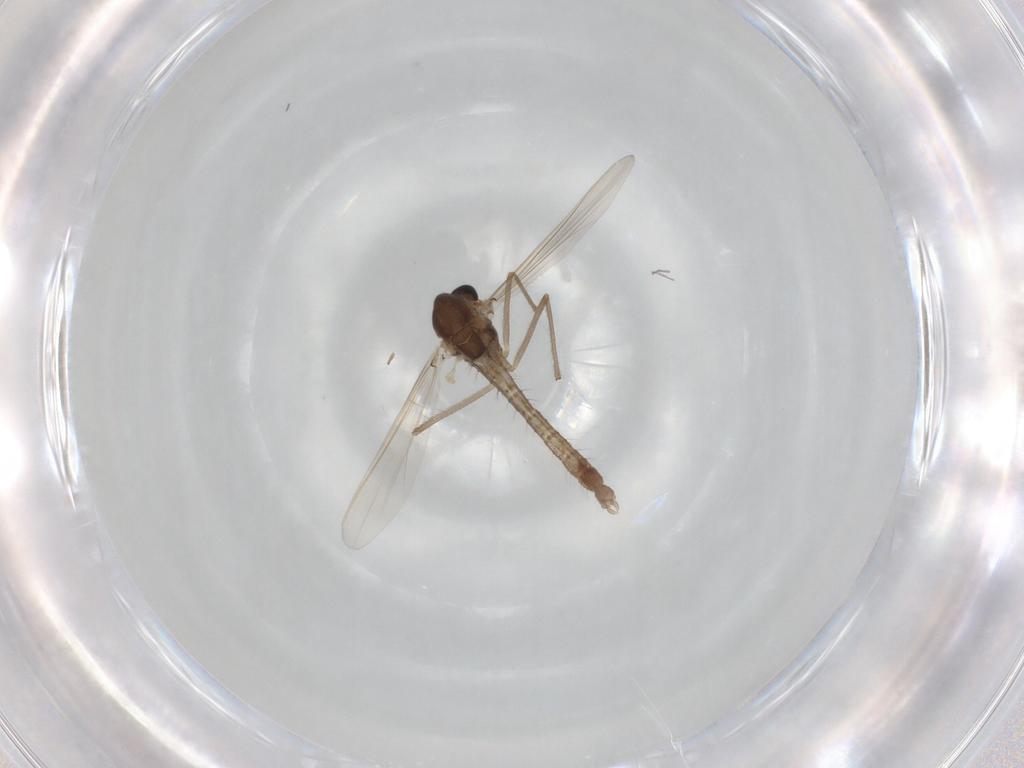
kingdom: Animalia
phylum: Arthropoda
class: Insecta
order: Diptera
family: Chironomidae
